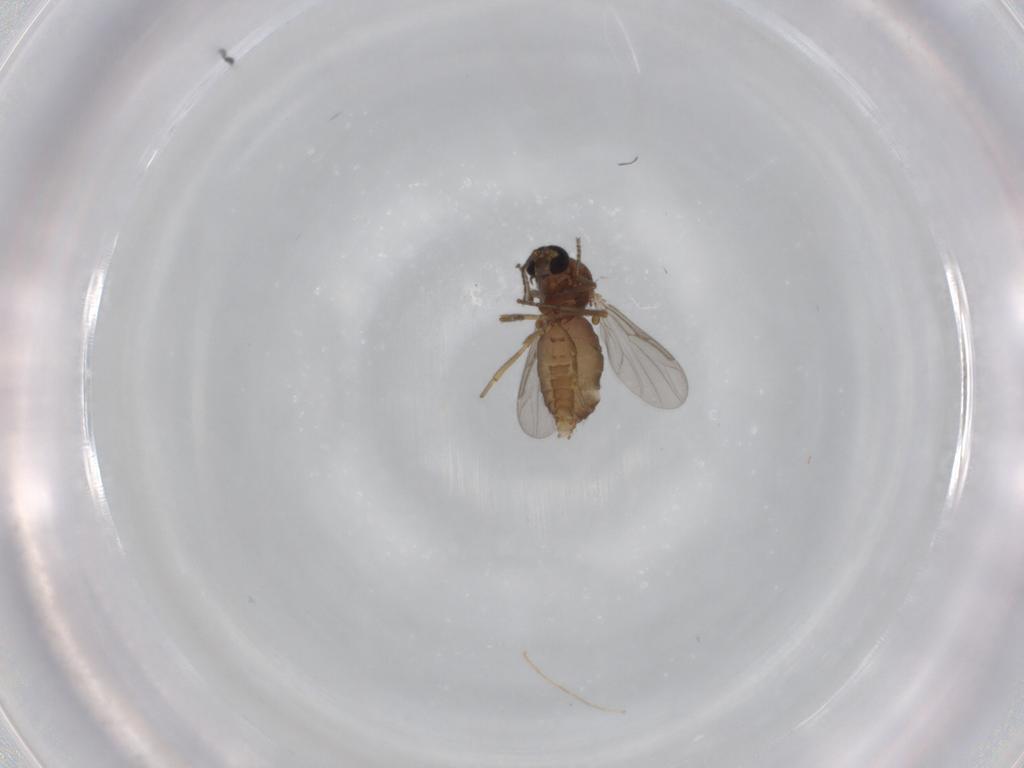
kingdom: Animalia
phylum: Arthropoda
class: Insecta
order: Diptera
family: Ceratopogonidae
